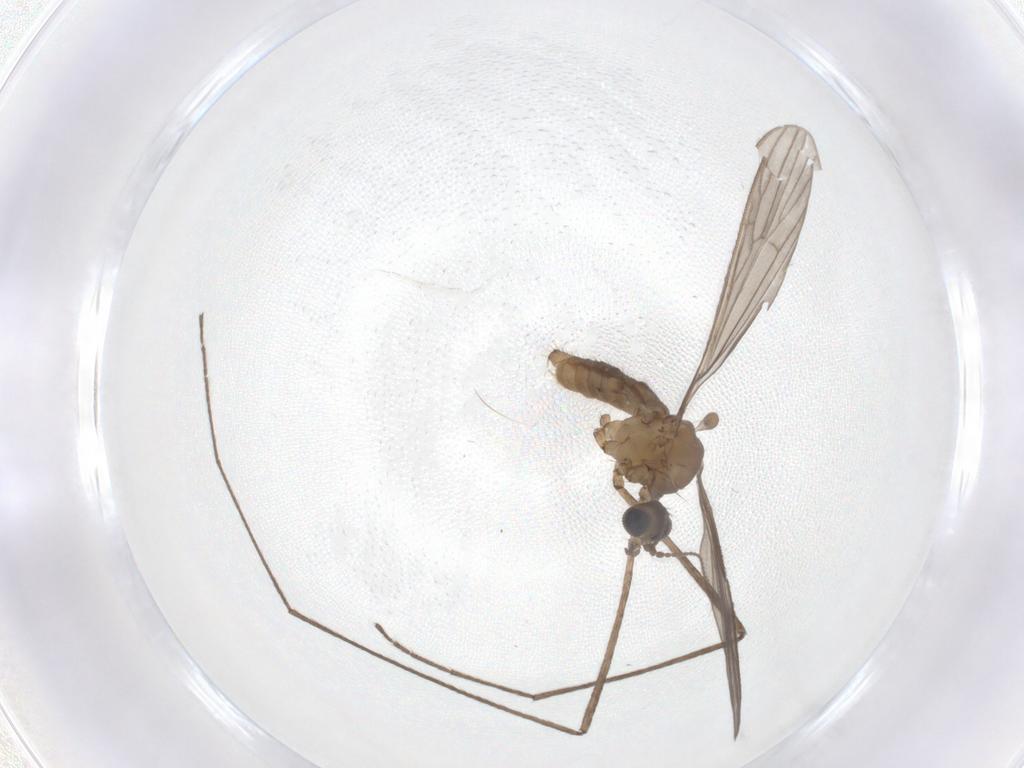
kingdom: Animalia
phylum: Arthropoda
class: Insecta
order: Diptera
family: Limoniidae
